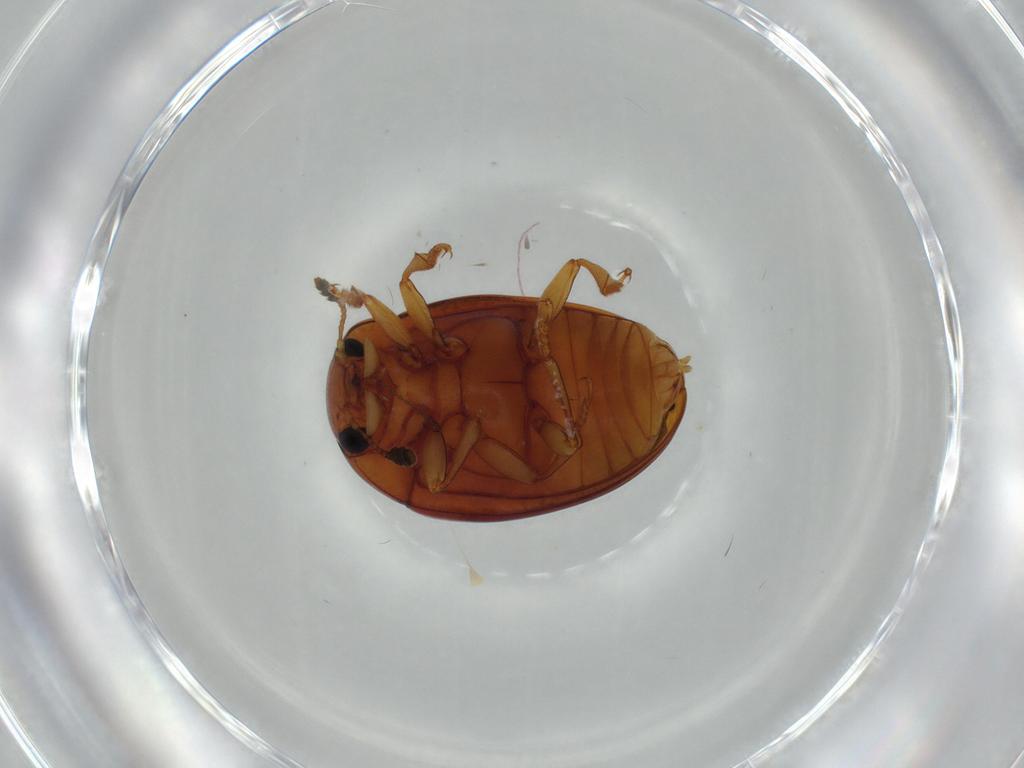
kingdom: Animalia
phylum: Arthropoda
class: Insecta
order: Coleoptera
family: Erotylidae
